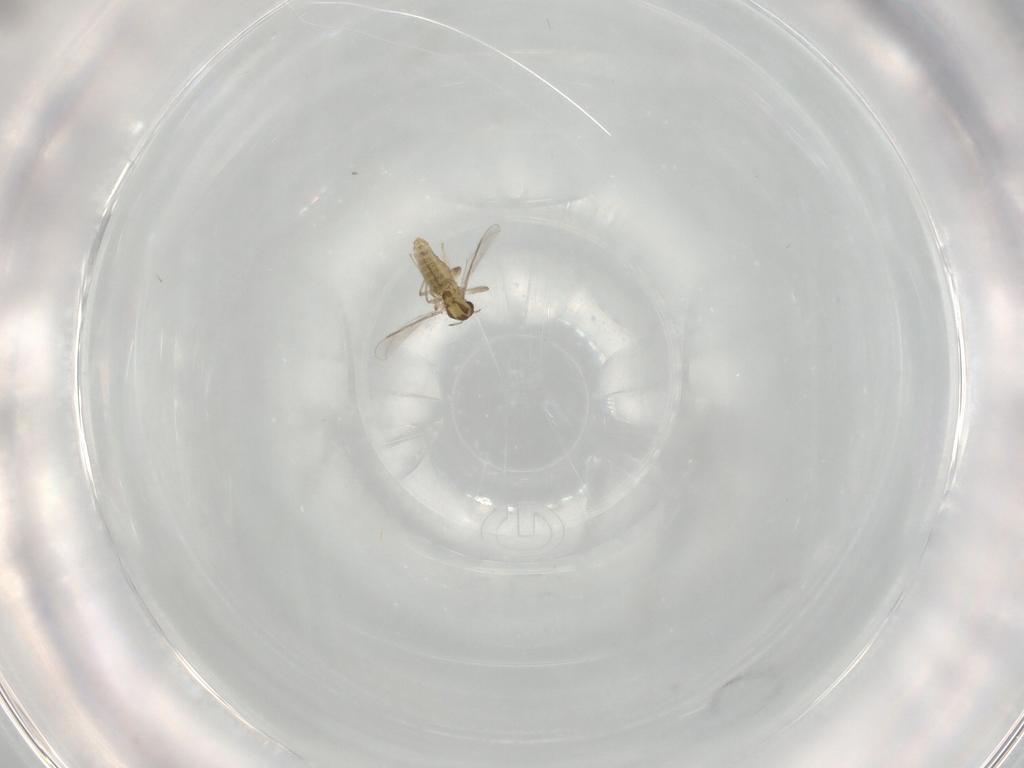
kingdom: Animalia
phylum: Arthropoda
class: Insecta
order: Diptera
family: Chironomidae
